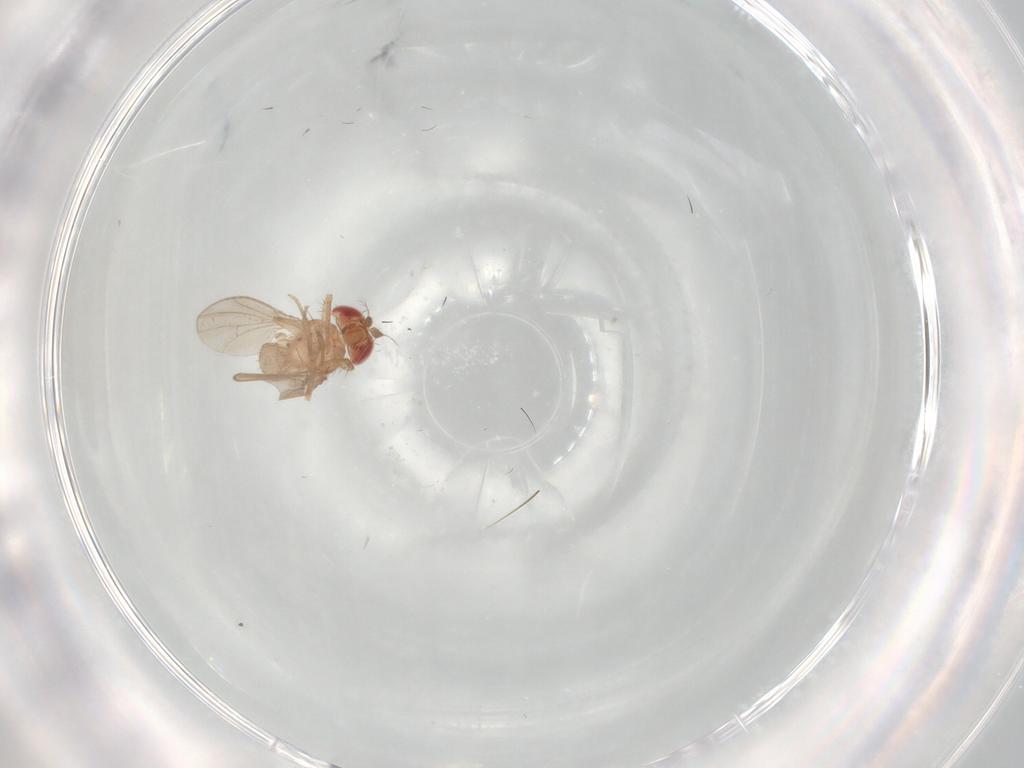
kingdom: Animalia
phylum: Arthropoda
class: Insecta
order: Diptera
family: Drosophilidae
